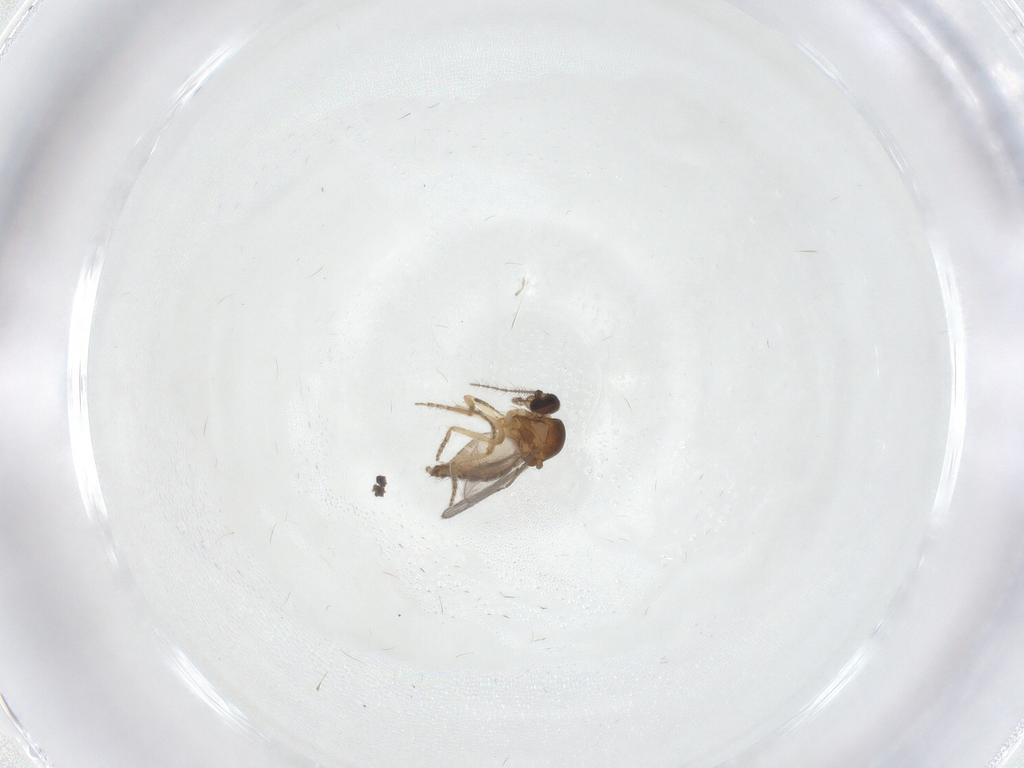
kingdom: Animalia
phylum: Arthropoda
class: Insecta
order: Diptera
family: Ceratopogonidae
